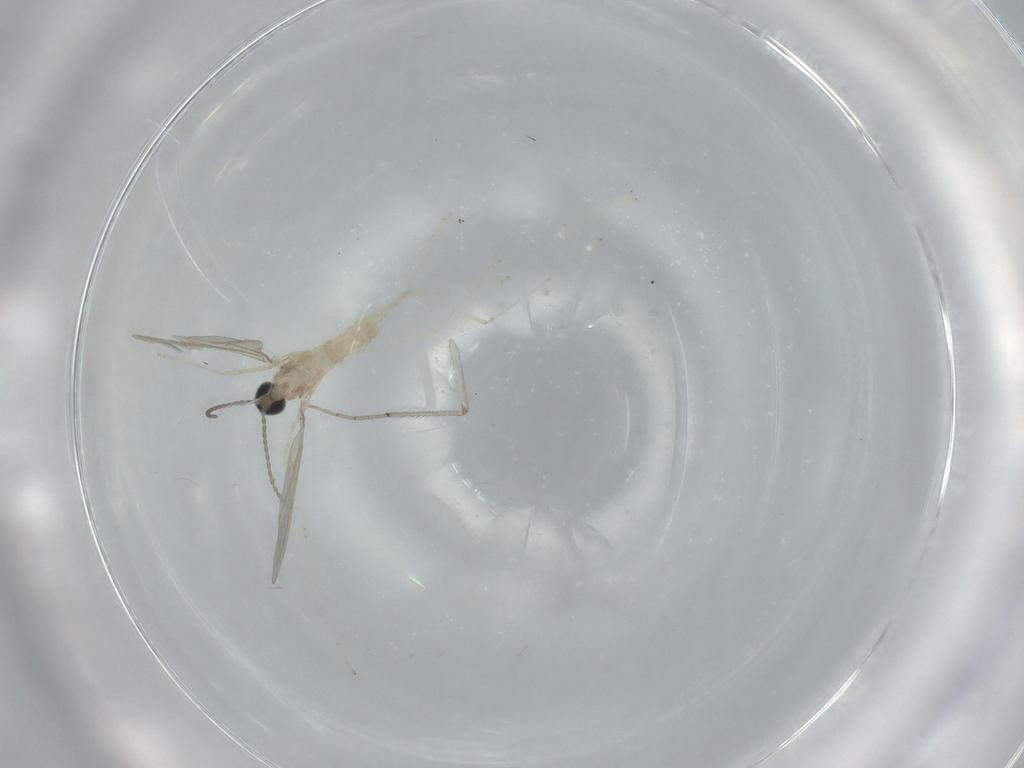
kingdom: Animalia
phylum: Arthropoda
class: Insecta
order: Diptera
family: Cecidomyiidae
